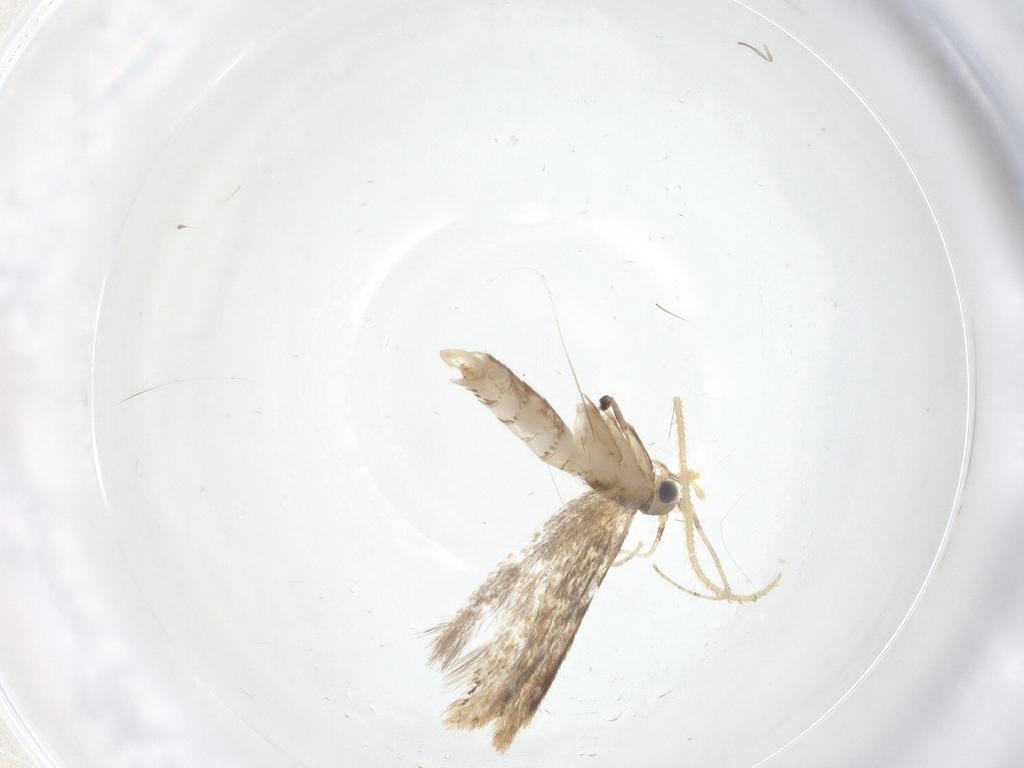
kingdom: Animalia
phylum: Arthropoda
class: Insecta
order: Lepidoptera
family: Dryadaulidae
